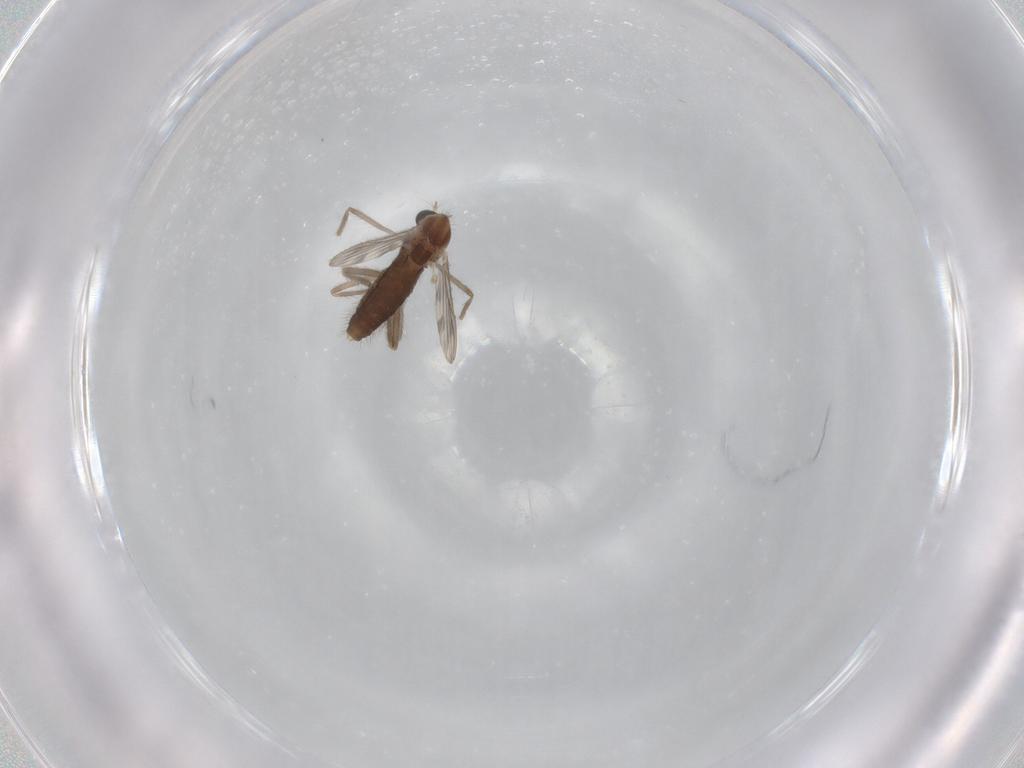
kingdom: Animalia
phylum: Arthropoda
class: Insecta
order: Diptera
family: Chironomidae
